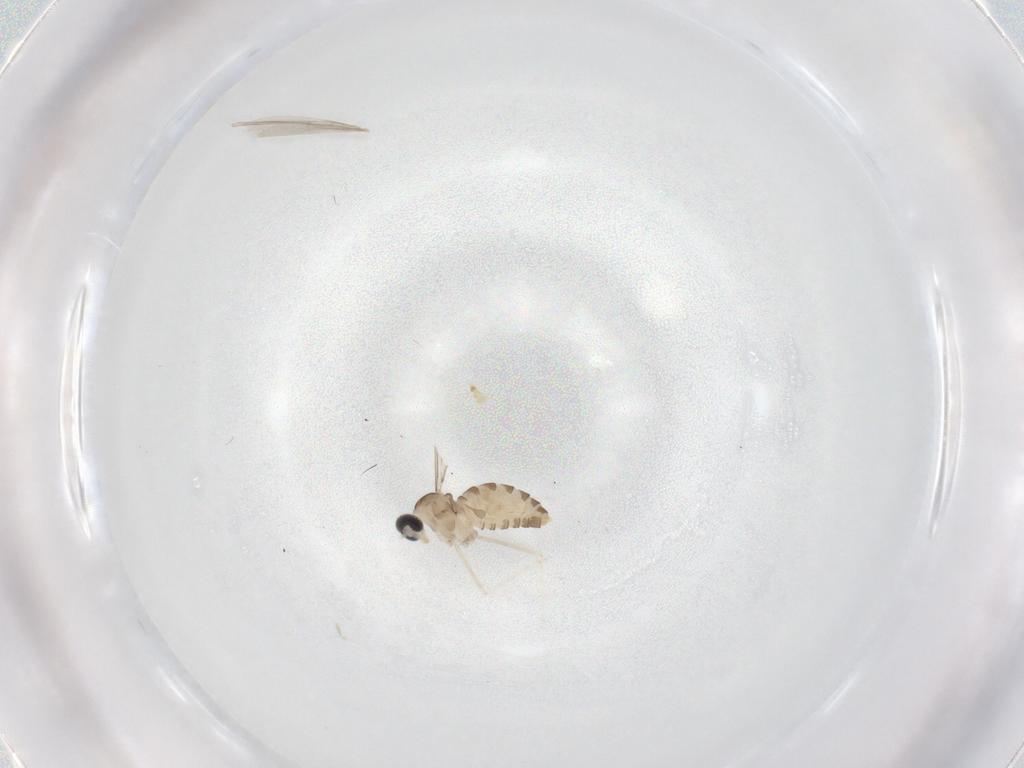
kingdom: Animalia
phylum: Arthropoda
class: Insecta
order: Diptera
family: Cecidomyiidae
